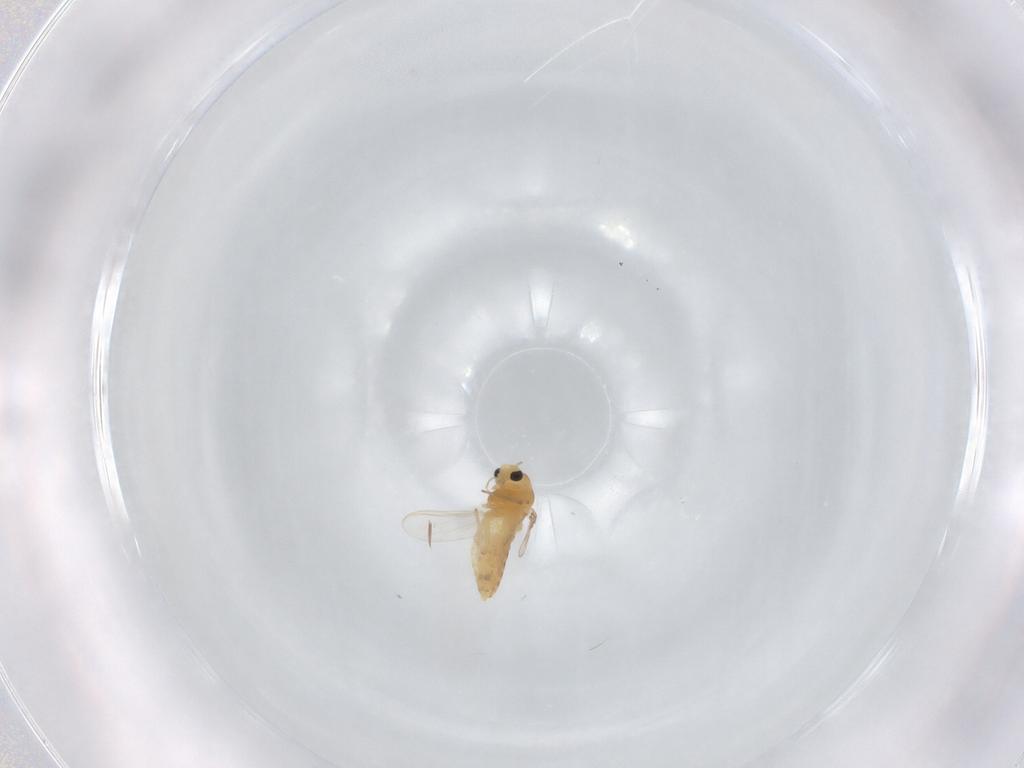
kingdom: Animalia
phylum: Arthropoda
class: Insecta
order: Diptera
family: Chironomidae
